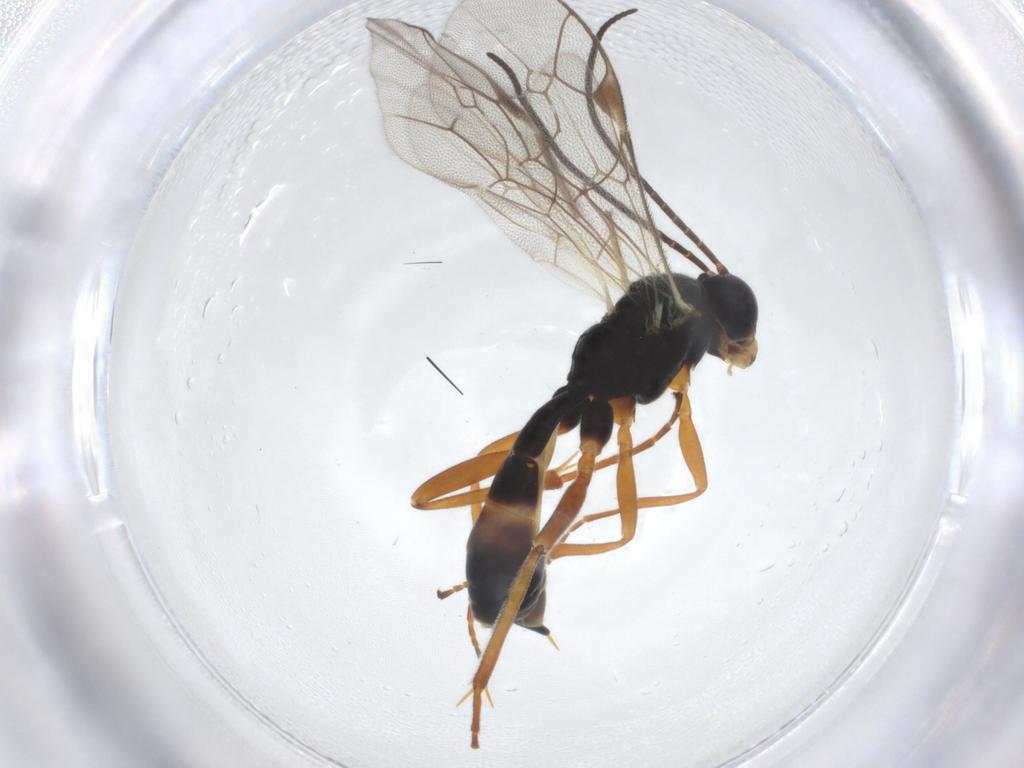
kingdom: Animalia
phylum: Arthropoda
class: Insecta
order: Hymenoptera
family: Ichneumonidae
